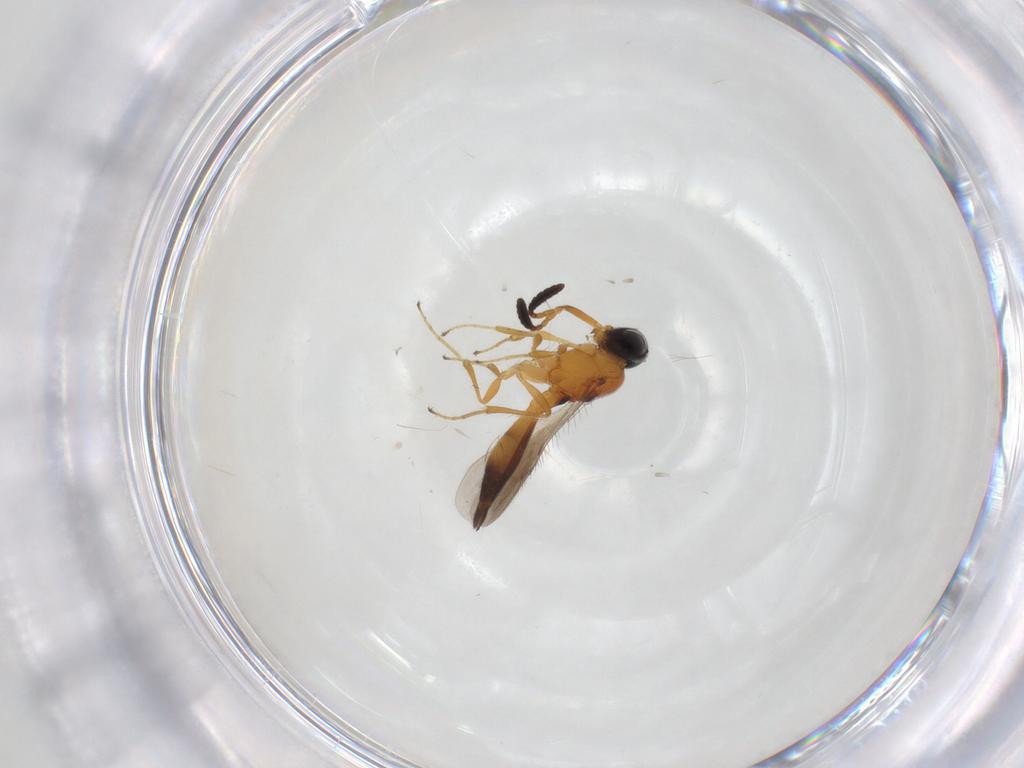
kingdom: Animalia
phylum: Arthropoda
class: Insecta
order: Hymenoptera
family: Scelionidae
